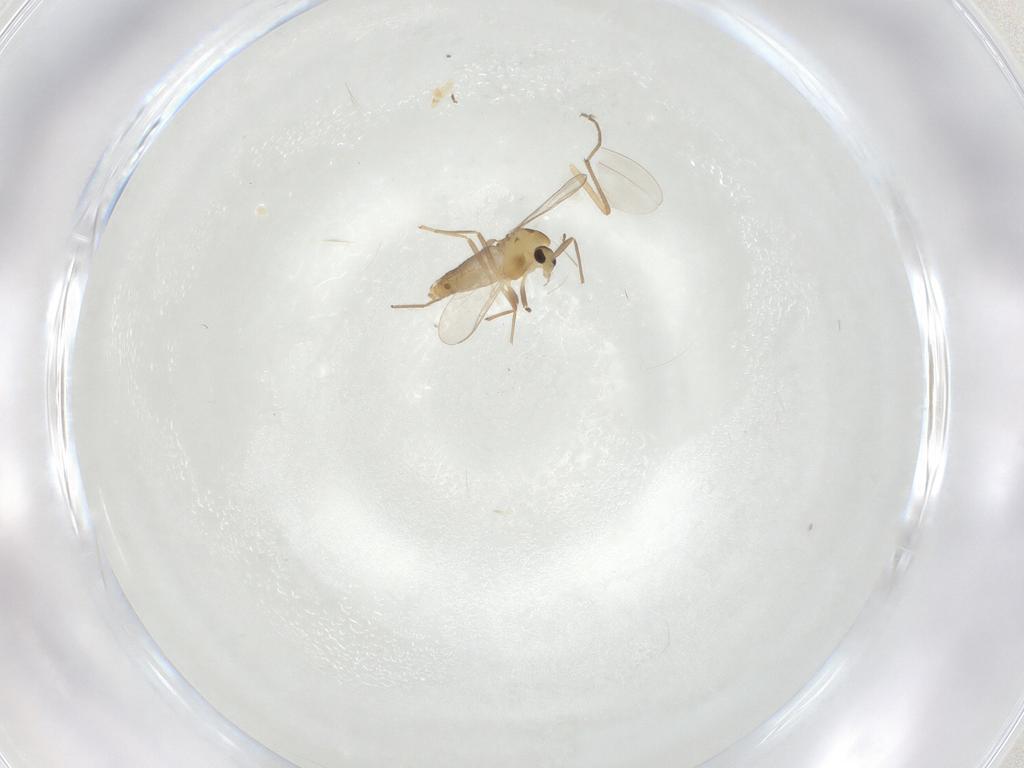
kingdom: Animalia
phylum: Arthropoda
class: Insecta
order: Diptera
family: Chironomidae
